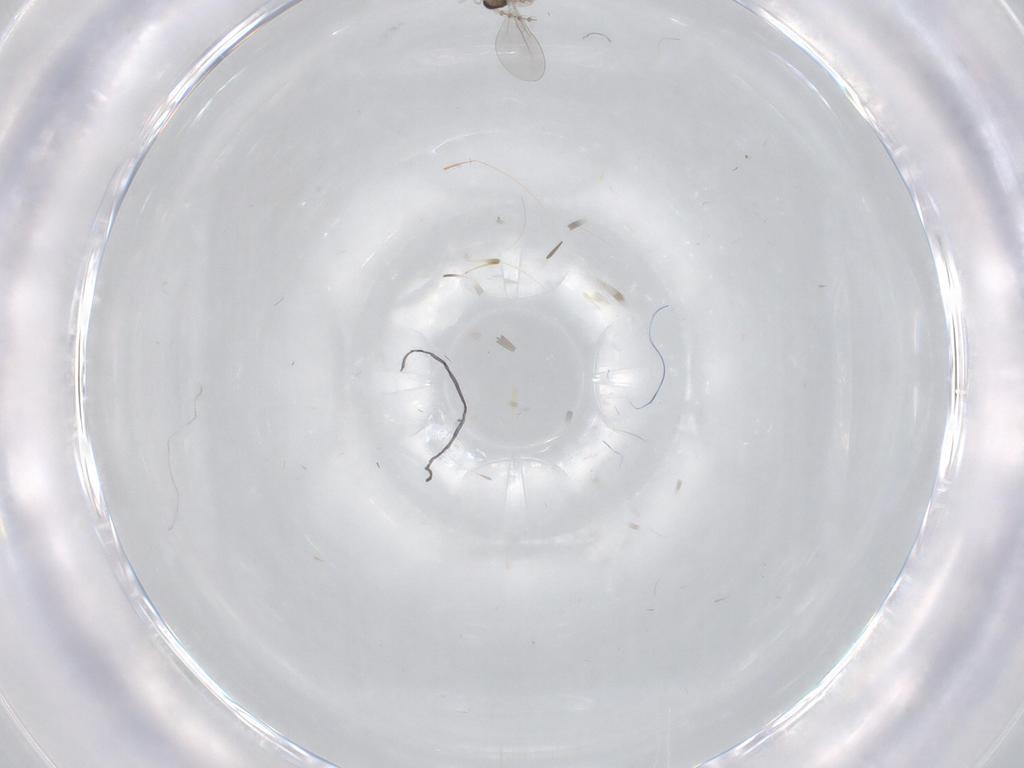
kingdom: Animalia
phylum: Arthropoda
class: Insecta
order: Diptera
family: Cecidomyiidae
